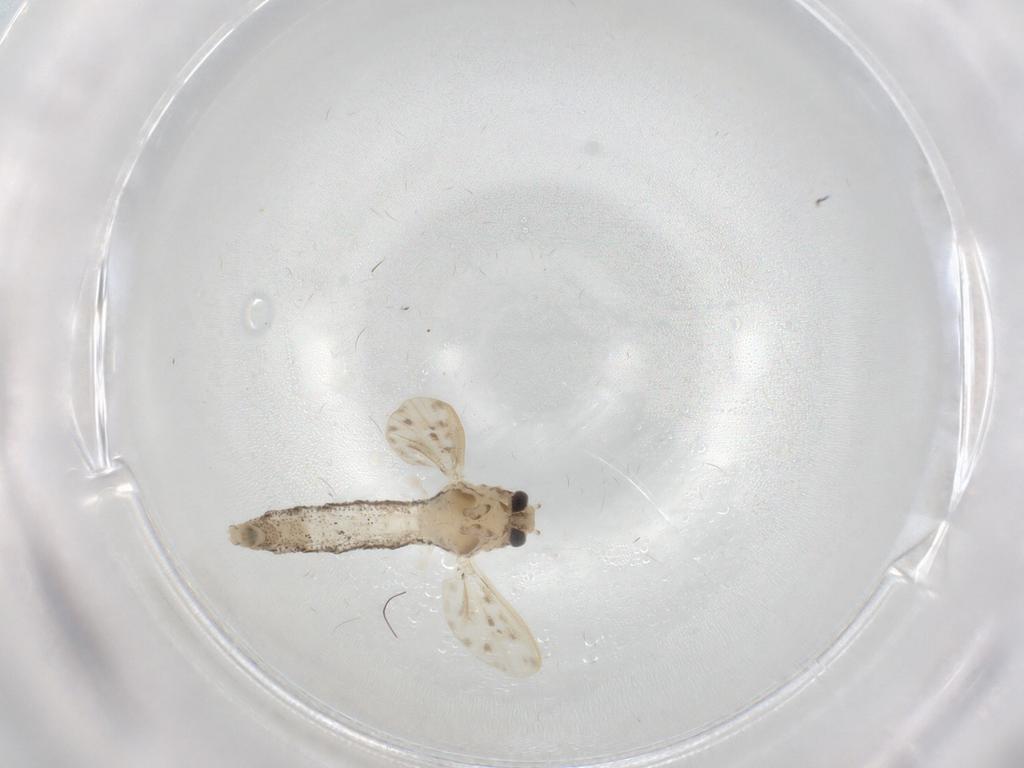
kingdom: Animalia
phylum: Arthropoda
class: Insecta
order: Diptera
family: Chaoboridae
